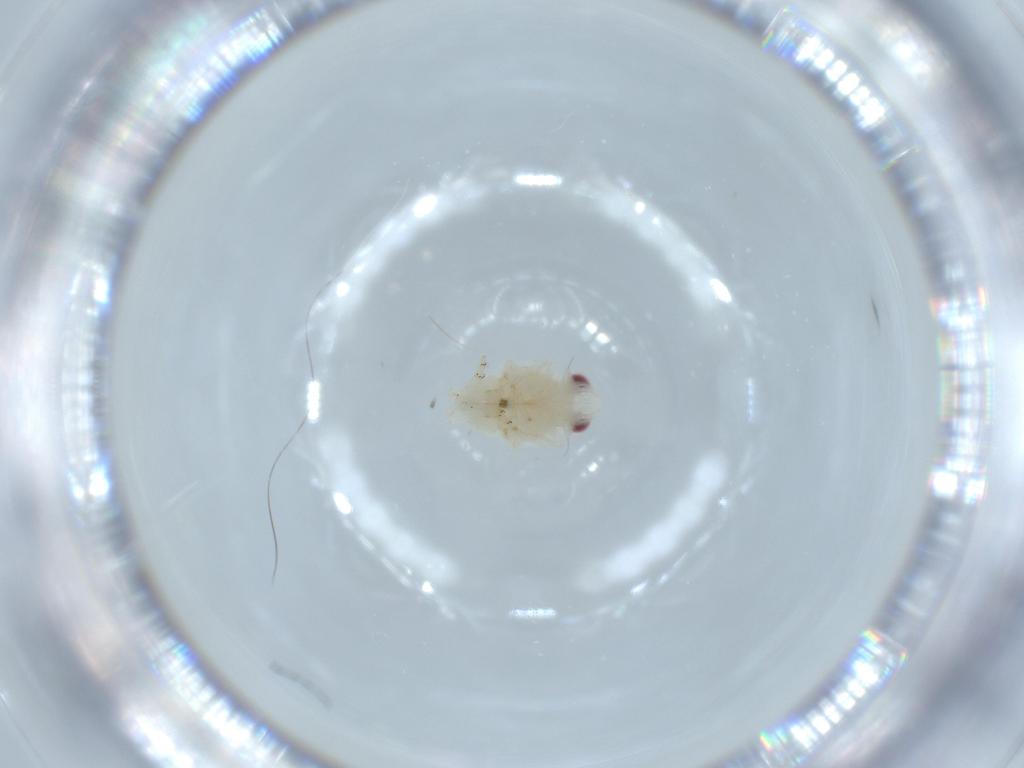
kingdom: Animalia
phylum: Arthropoda
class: Insecta
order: Hemiptera
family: Nogodinidae
